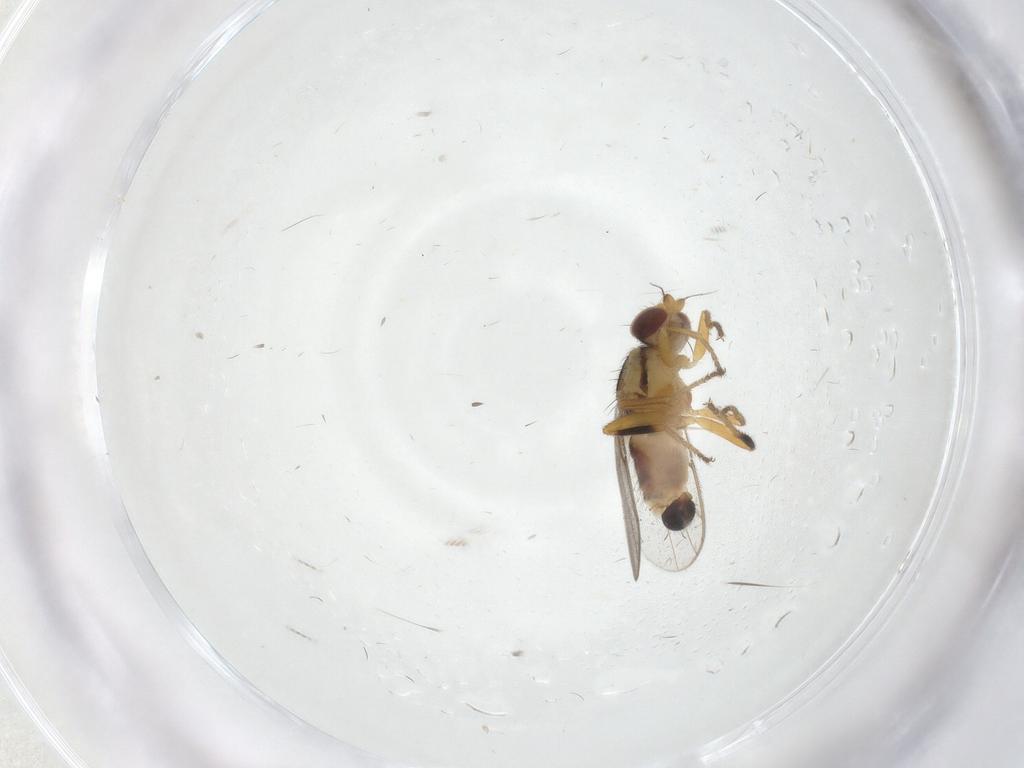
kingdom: Animalia
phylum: Arthropoda
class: Insecta
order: Diptera
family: Chloropidae
